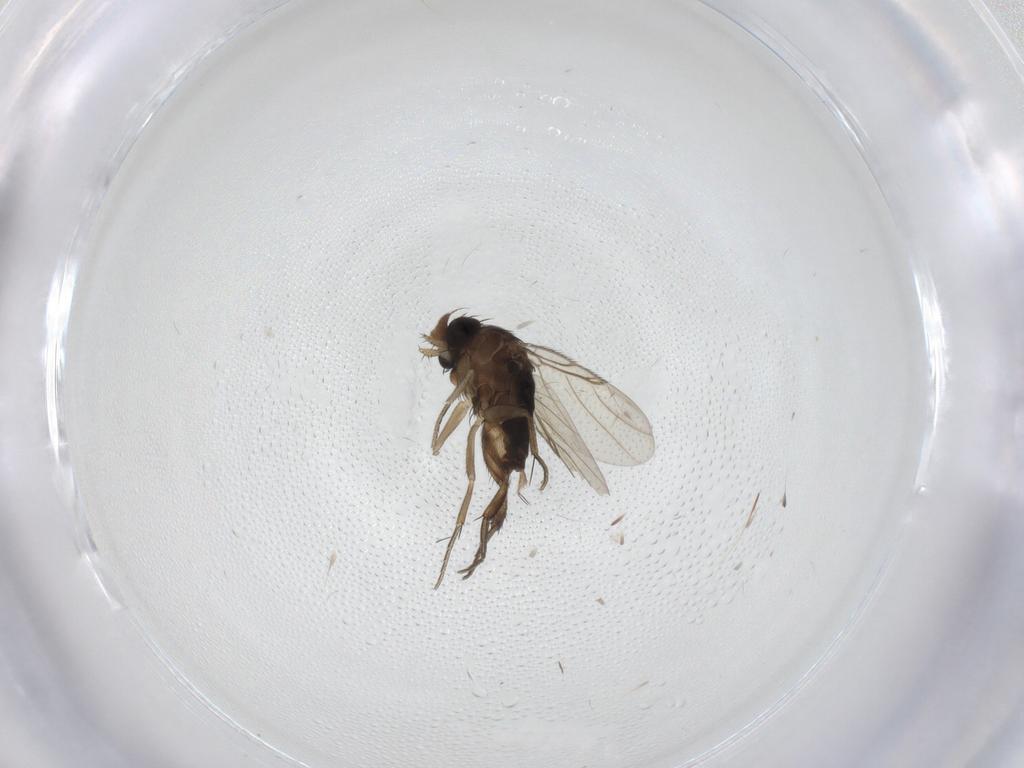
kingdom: Animalia
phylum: Arthropoda
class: Insecta
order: Diptera
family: Phoridae
